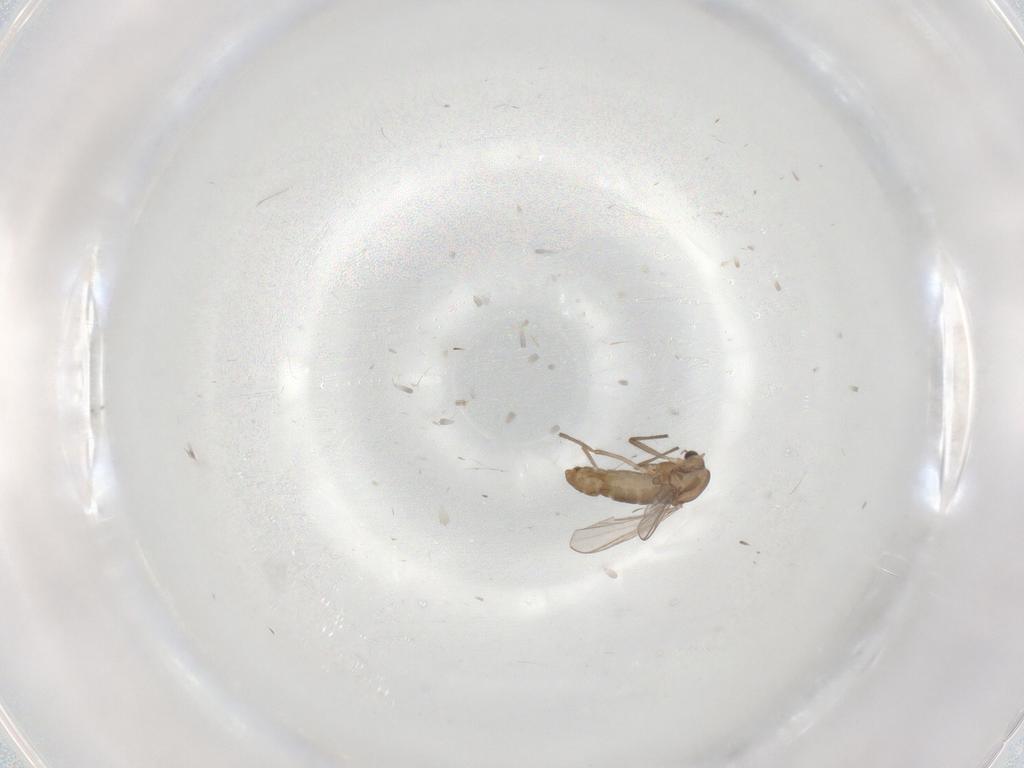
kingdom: Animalia
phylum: Arthropoda
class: Insecta
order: Diptera
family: Chironomidae
